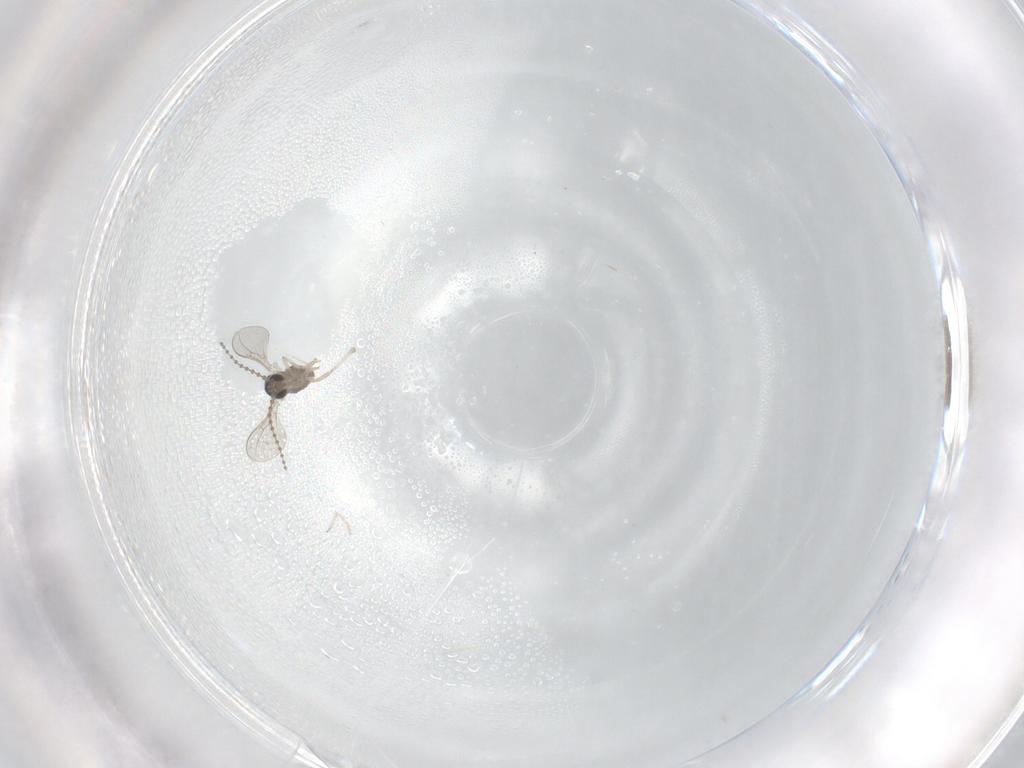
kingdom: Animalia
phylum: Arthropoda
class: Insecta
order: Diptera
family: Cecidomyiidae
